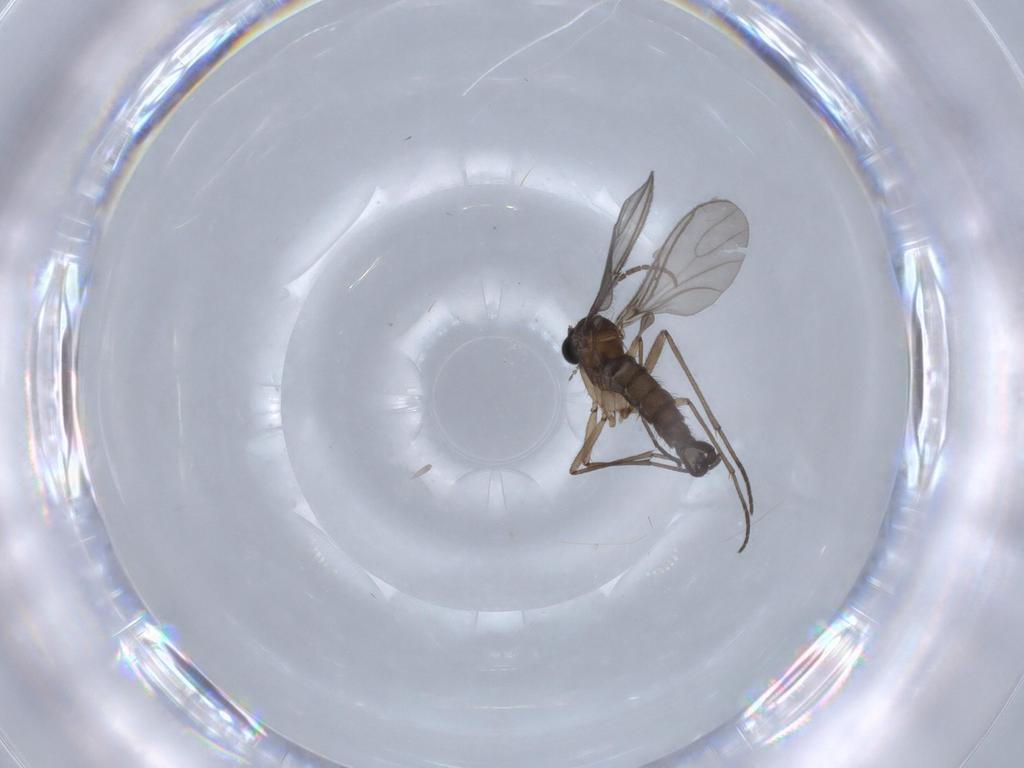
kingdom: Animalia
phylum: Arthropoda
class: Insecta
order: Diptera
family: Sciaridae
